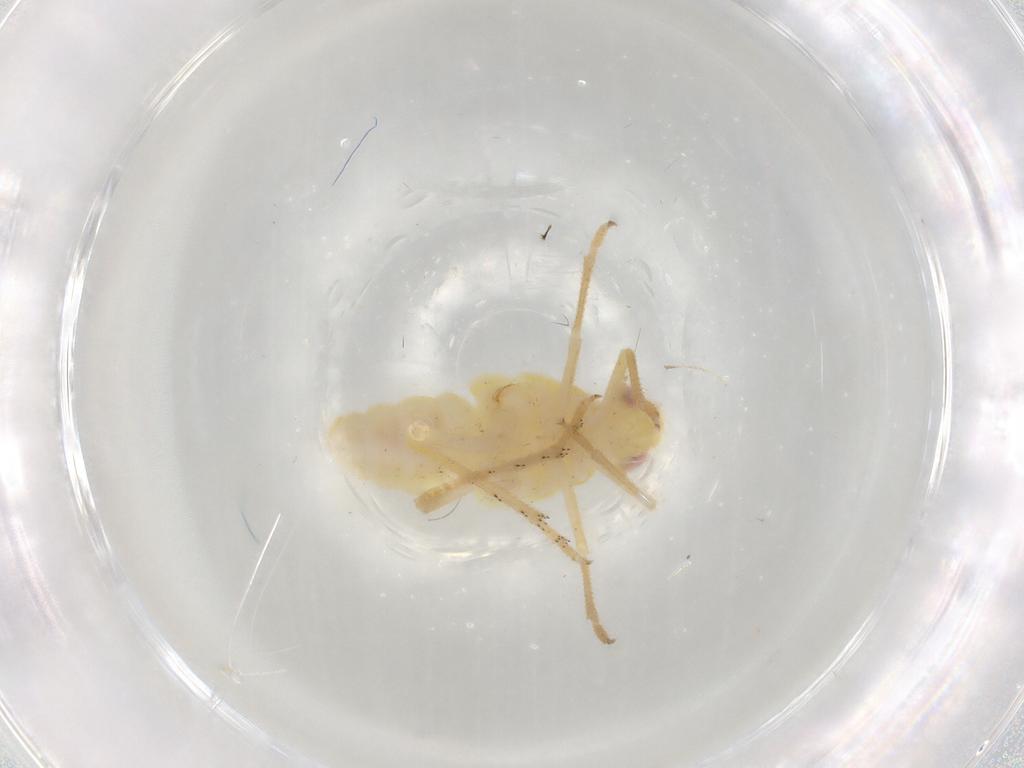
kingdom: Animalia
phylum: Arthropoda
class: Insecta
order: Hemiptera
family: Tropiduchidae
